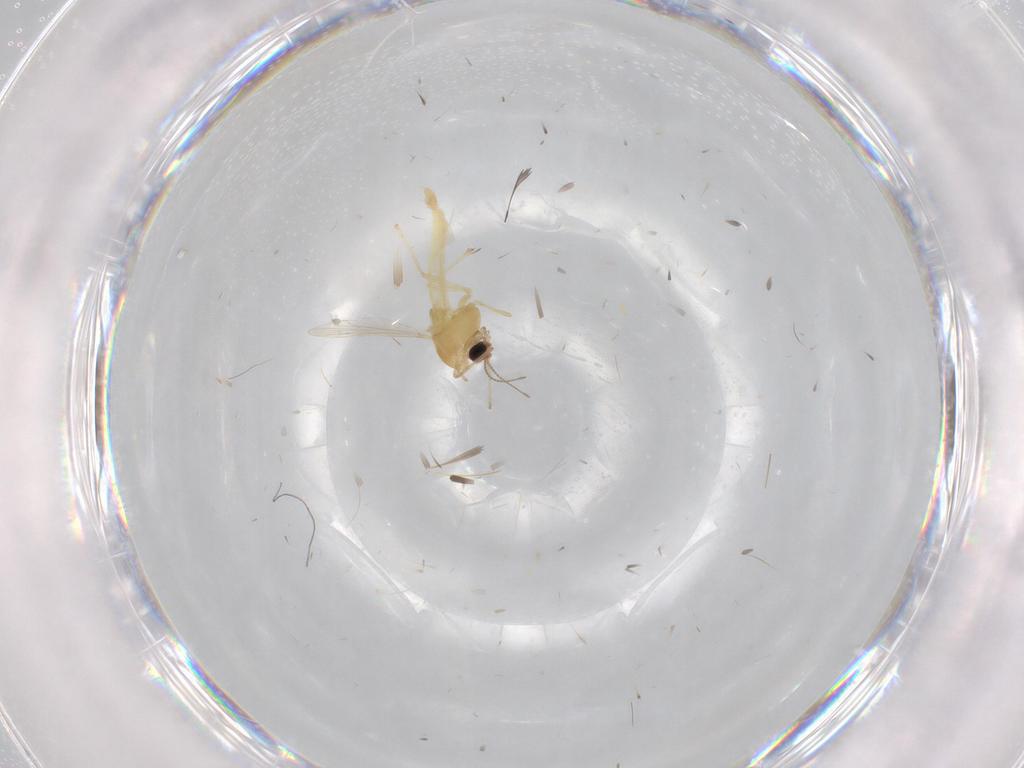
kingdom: Animalia
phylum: Arthropoda
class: Insecta
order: Diptera
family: Chironomidae
